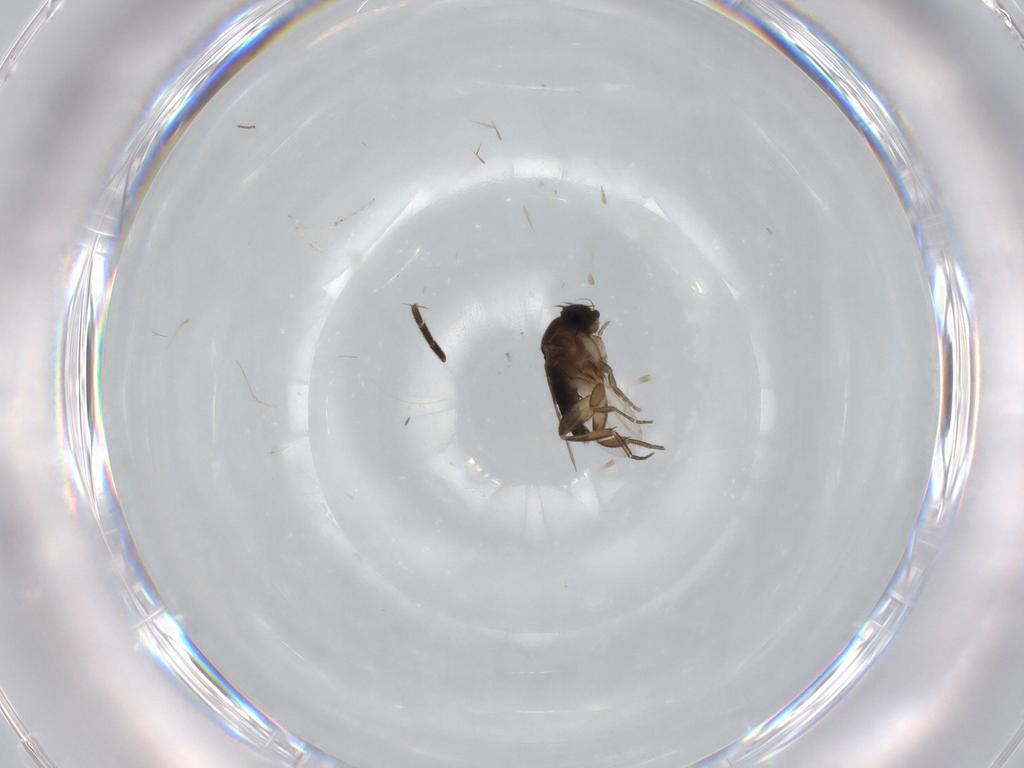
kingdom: Animalia
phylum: Arthropoda
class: Insecta
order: Diptera
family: Phoridae
